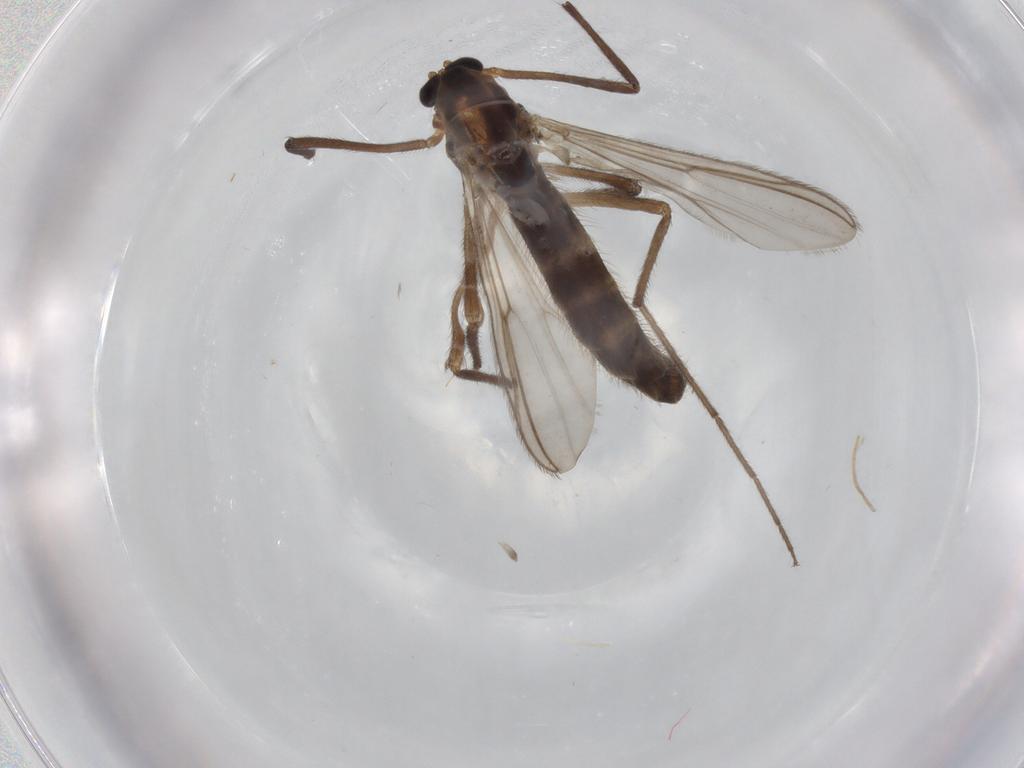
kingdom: Animalia
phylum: Arthropoda
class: Insecta
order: Diptera
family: Chironomidae
